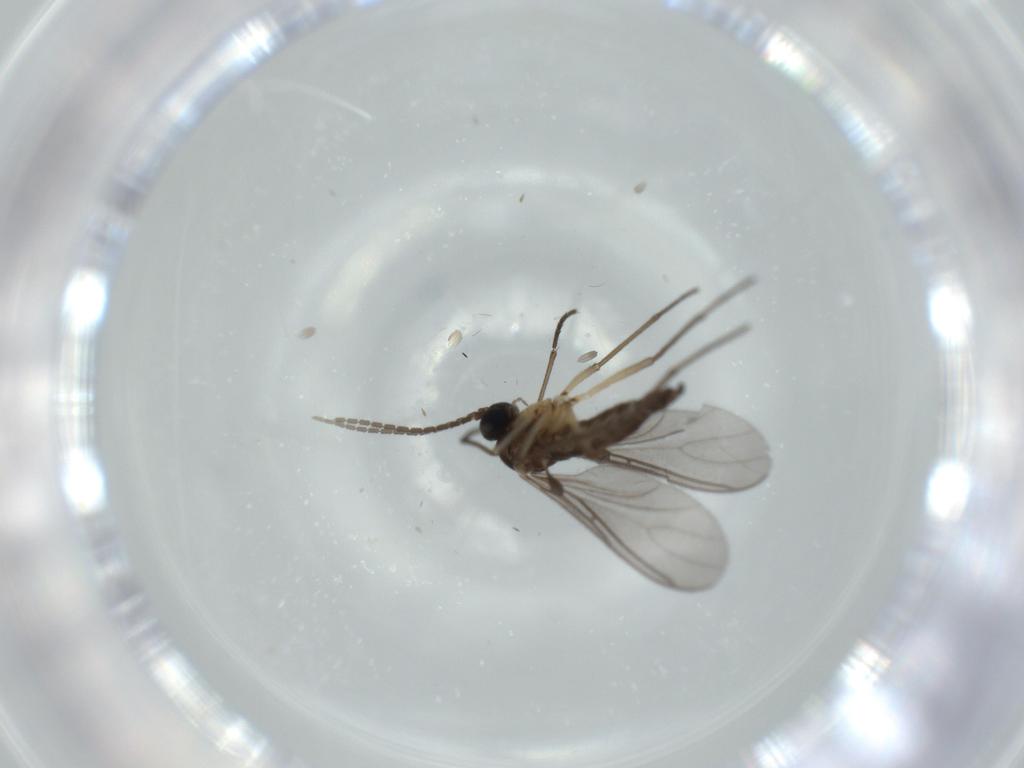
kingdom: Animalia
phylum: Arthropoda
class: Insecta
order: Diptera
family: Sciaridae
